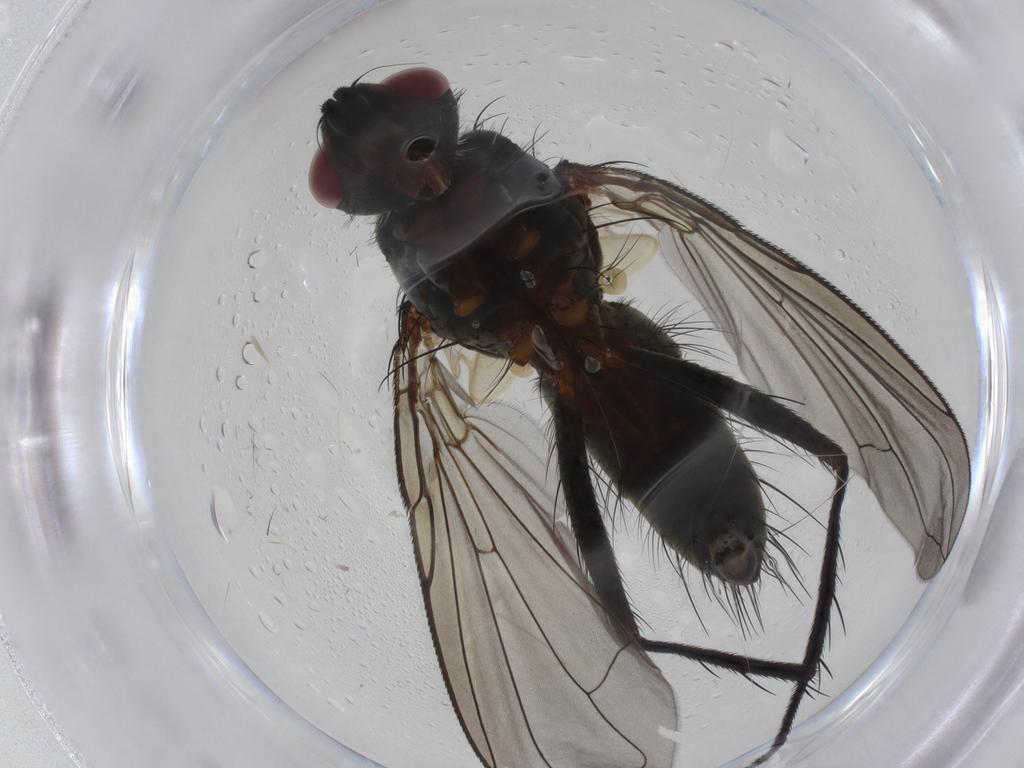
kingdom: Animalia
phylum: Arthropoda
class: Insecta
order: Diptera
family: Tachinidae
